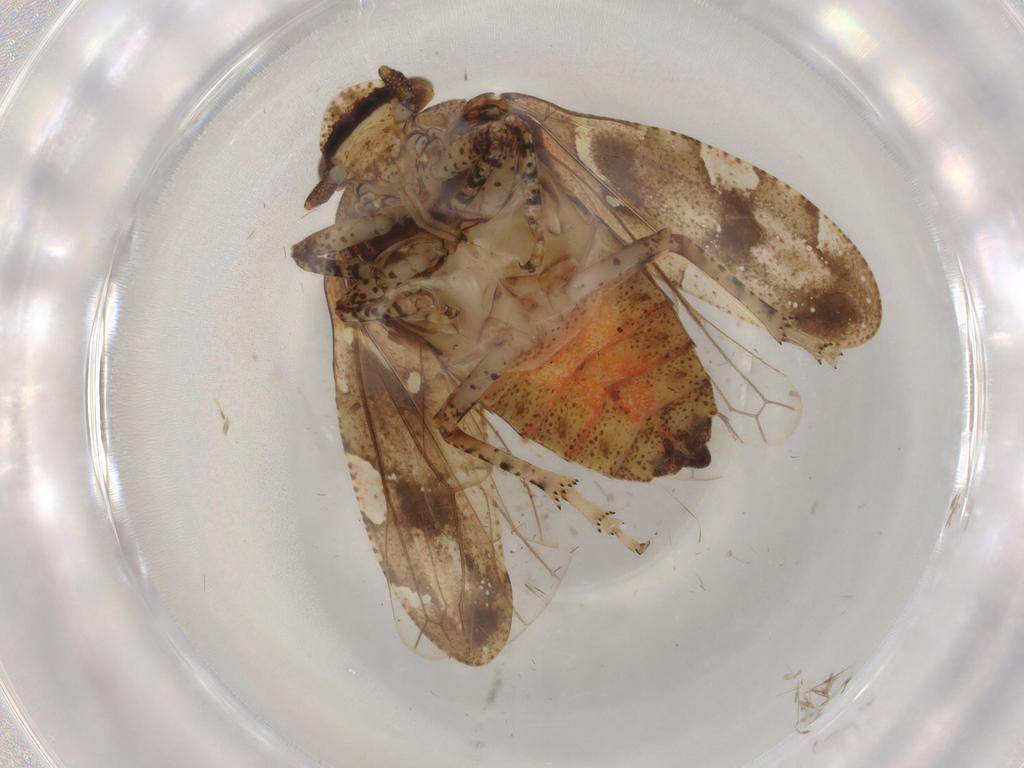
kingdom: Animalia
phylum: Arthropoda
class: Insecta
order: Hemiptera
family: Tettigometridae
